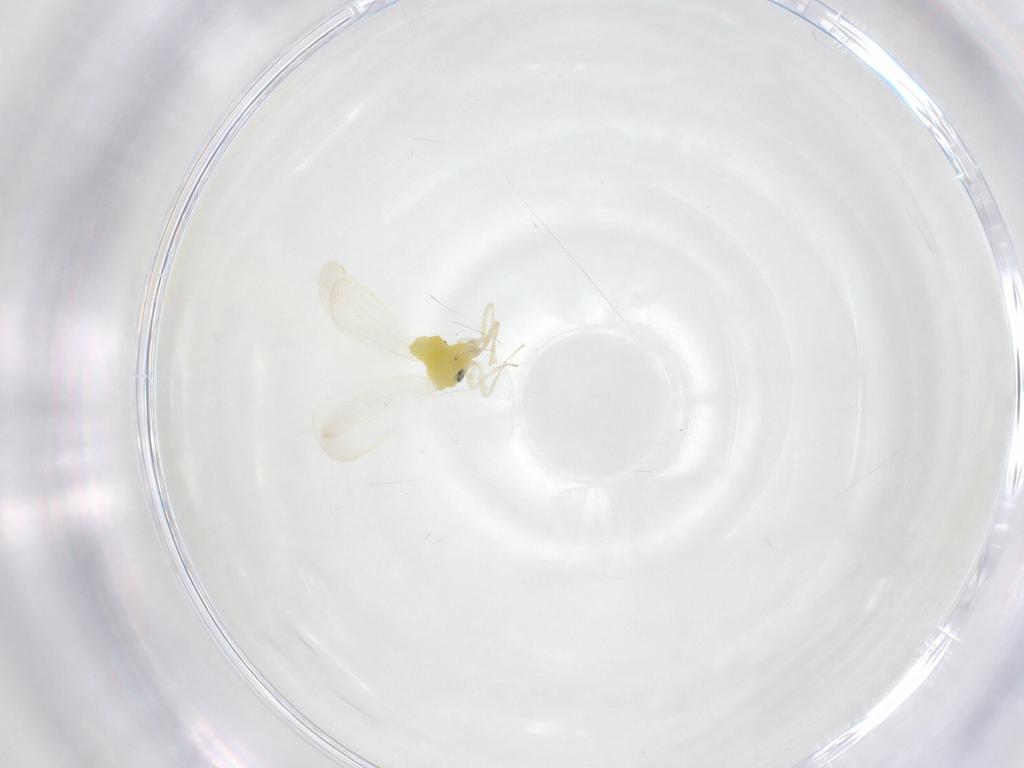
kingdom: Animalia
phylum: Arthropoda
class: Insecta
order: Hemiptera
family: Aleyrodidae
